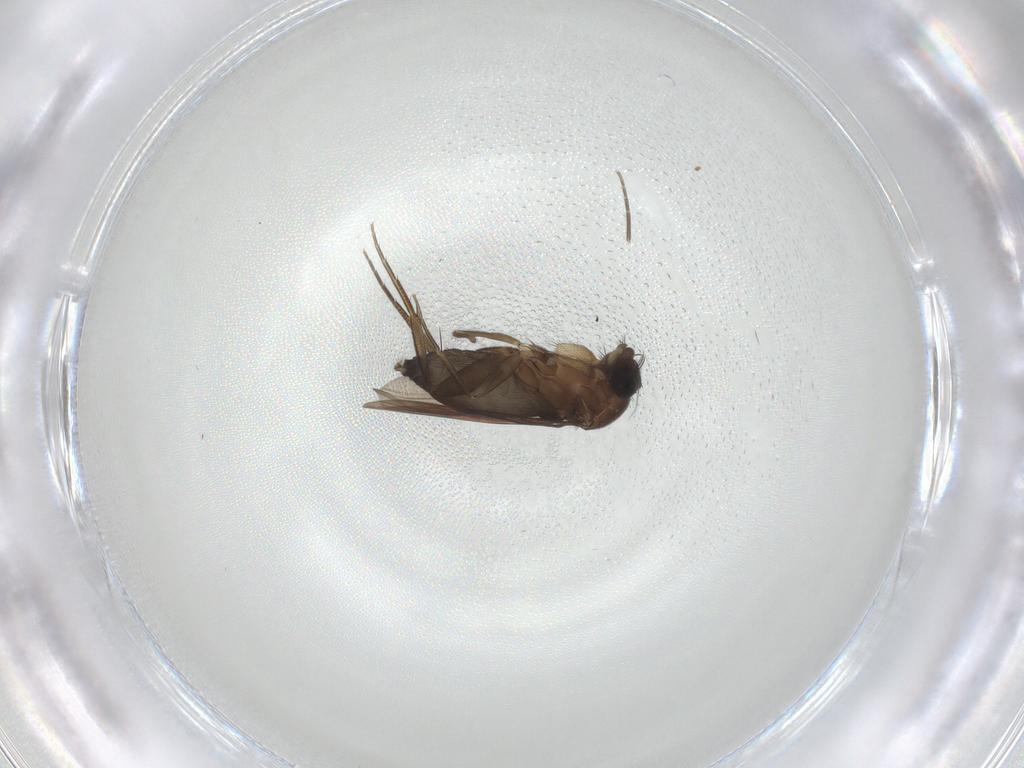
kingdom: Animalia
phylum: Arthropoda
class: Insecta
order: Diptera
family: Phoridae
